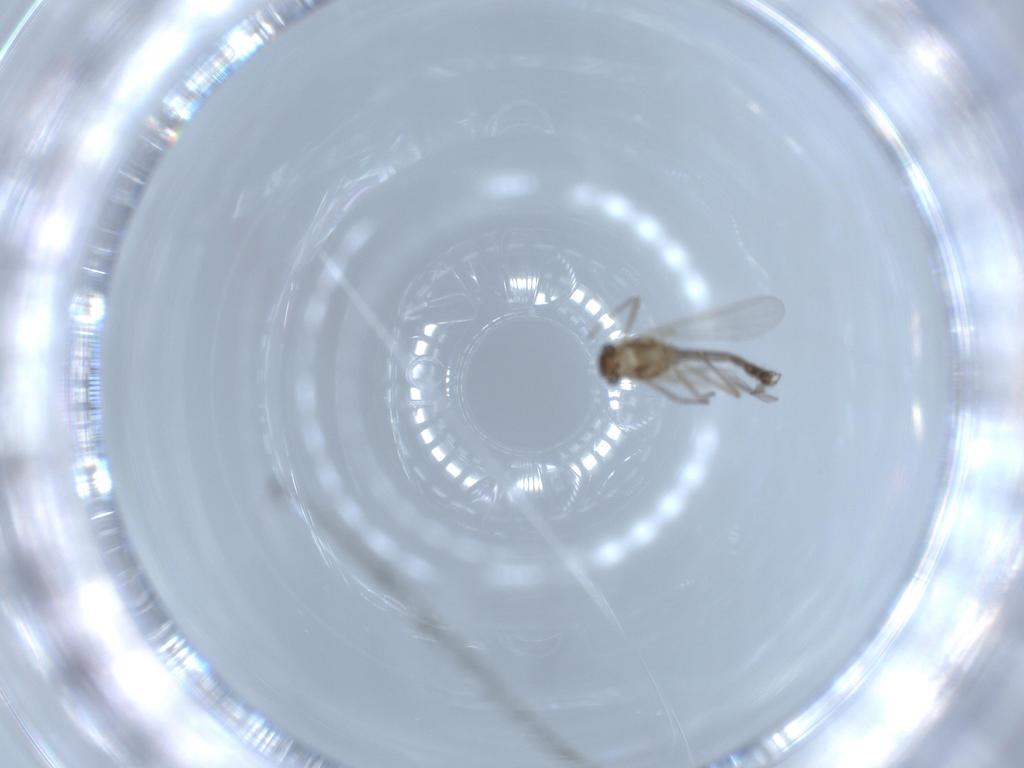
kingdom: Animalia
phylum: Arthropoda
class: Insecta
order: Diptera
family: Chironomidae
